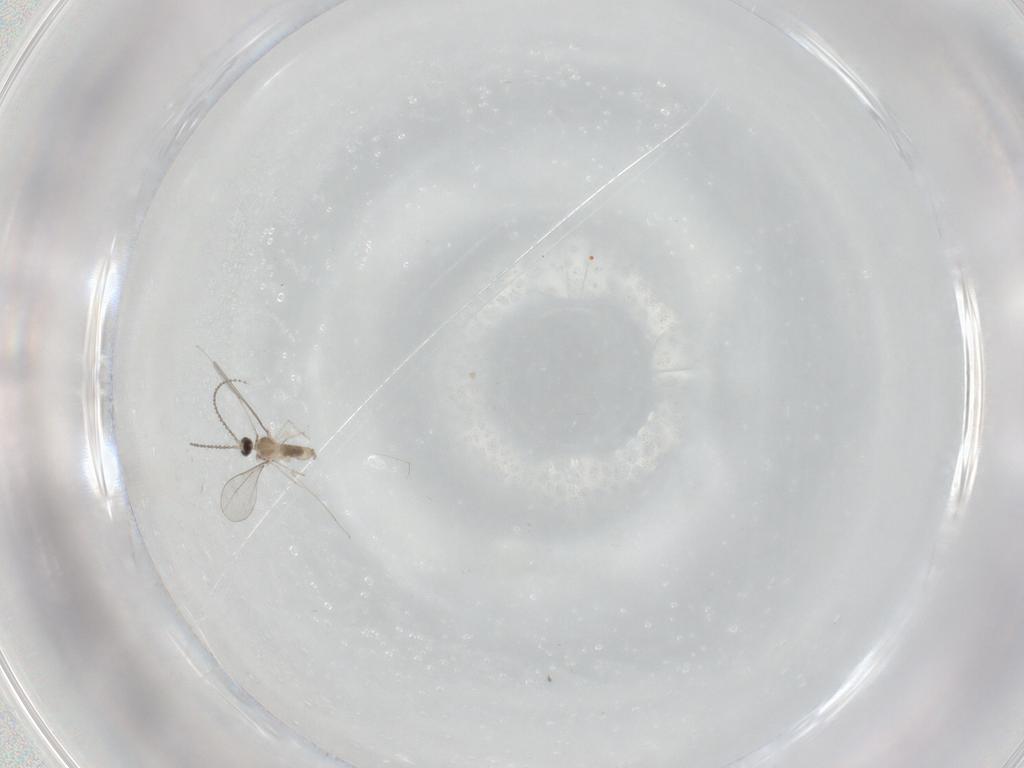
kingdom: Animalia
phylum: Arthropoda
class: Insecta
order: Diptera
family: Cecidomyiidae
